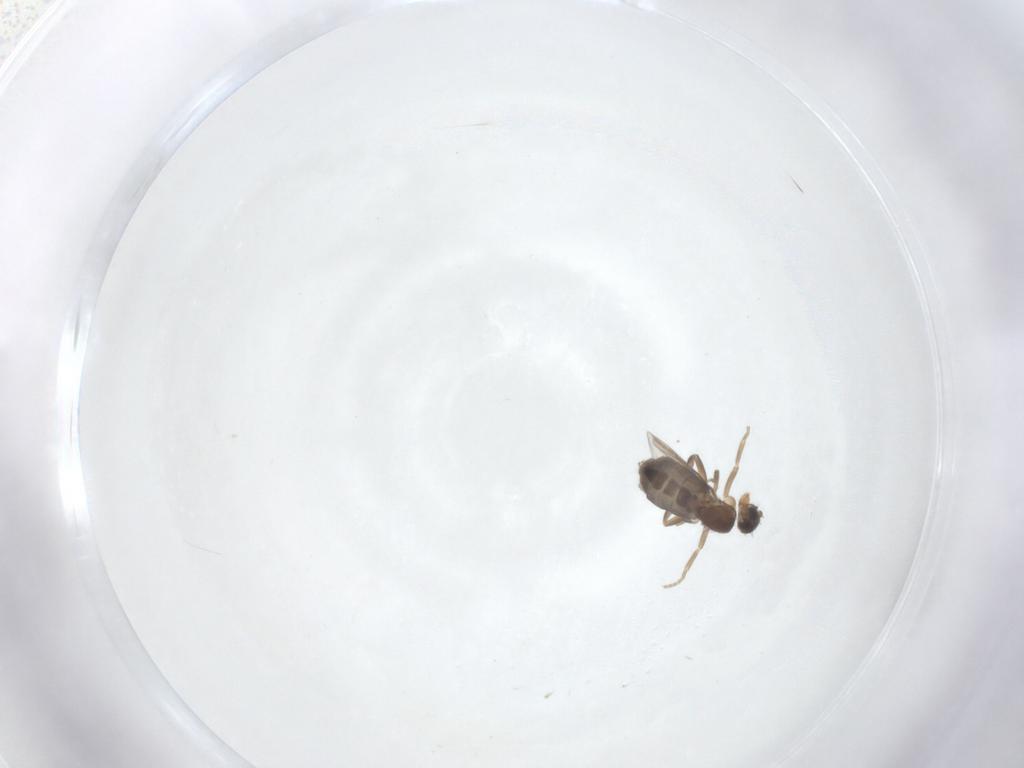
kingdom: Animalia
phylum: Arthropoda
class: Insecta
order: Diptera
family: Phoridae
